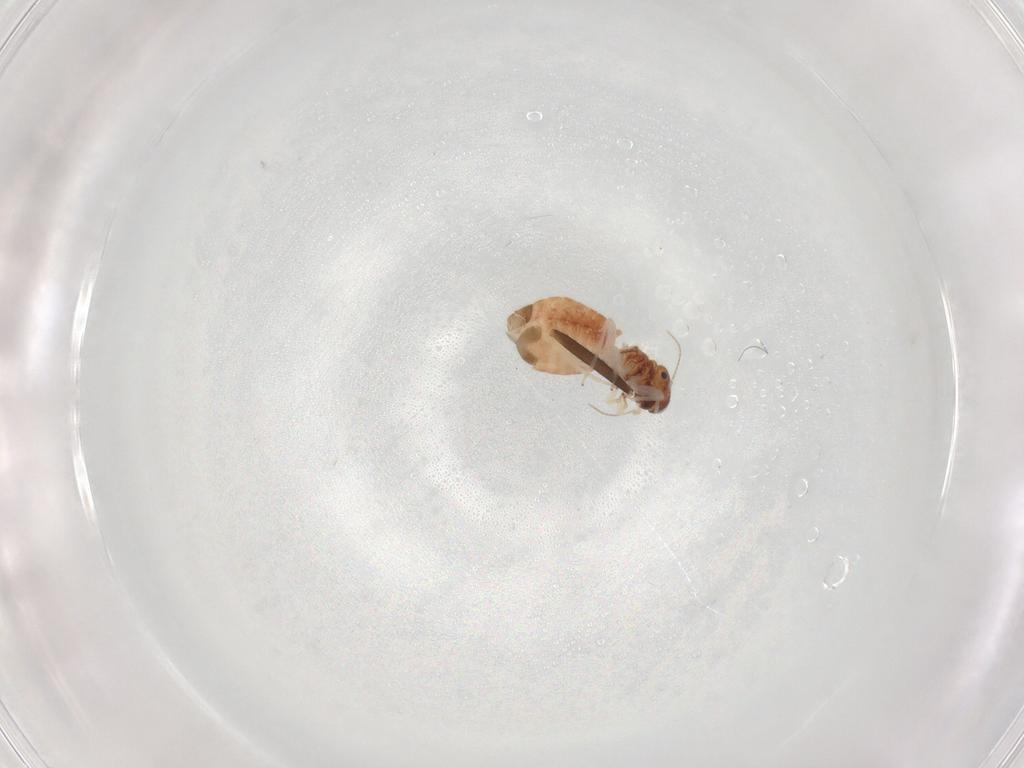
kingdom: Animalia
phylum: Arthropoda
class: Insecta
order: Psocodea
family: Archipsocidae
